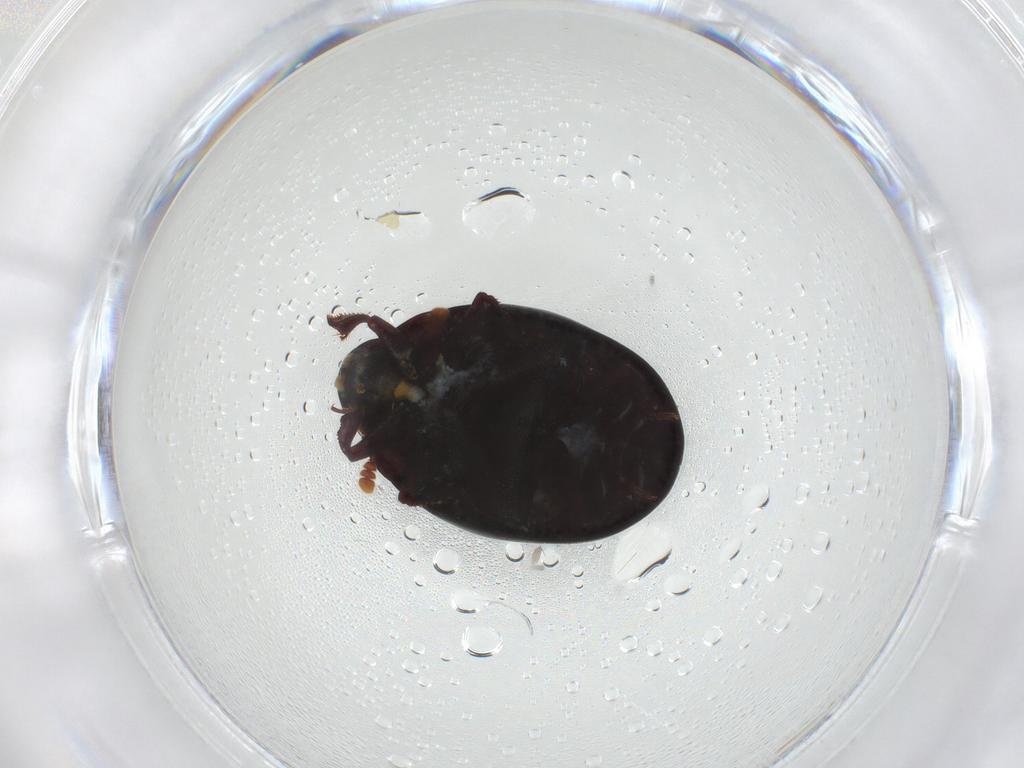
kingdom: Animalia
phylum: Arthropoda
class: Insecta
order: Coleoptera
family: Nosodendridae
